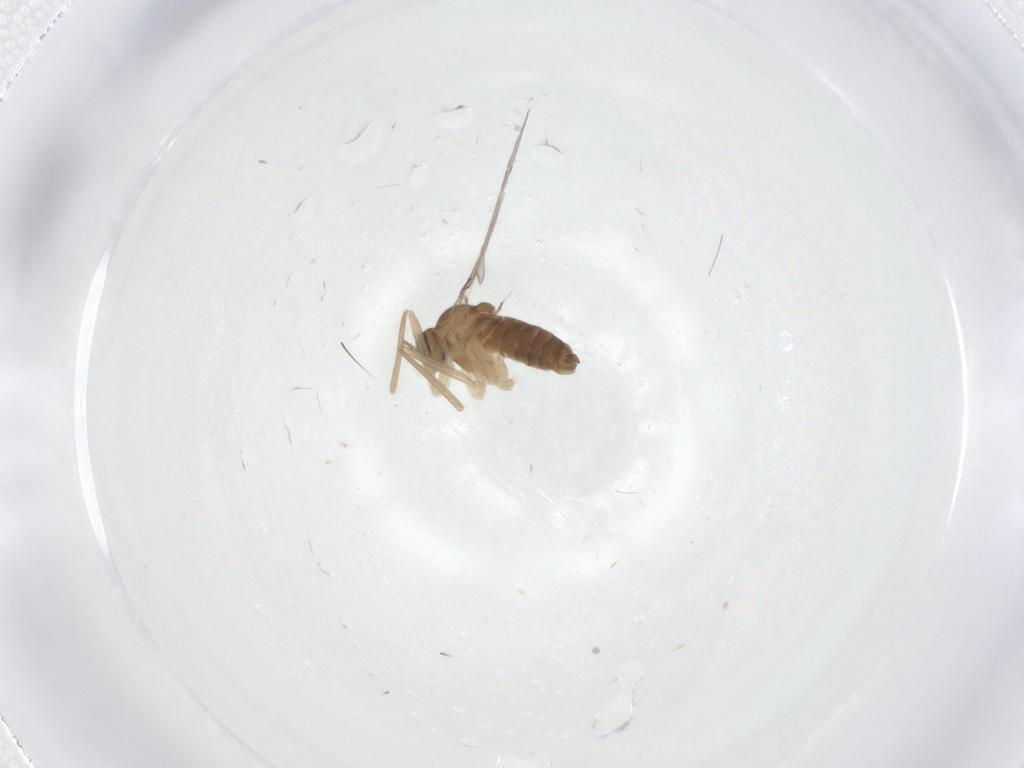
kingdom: Animalia
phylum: Arthropoda
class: Insecta
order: Diptera
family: Cecidomyiidae
